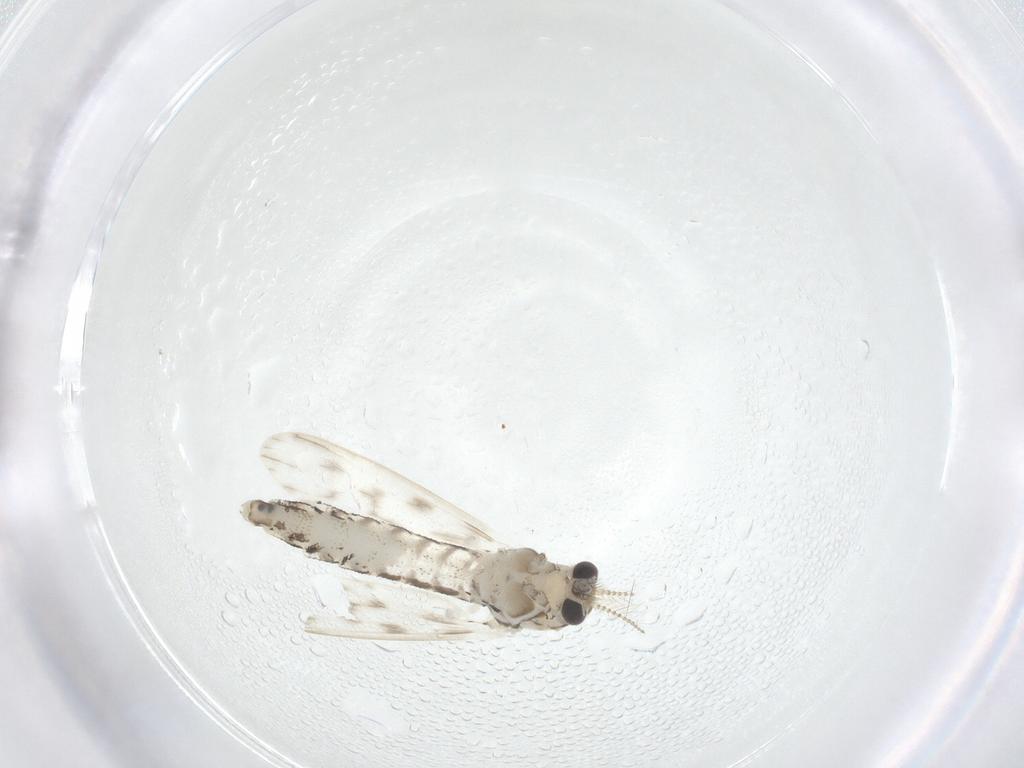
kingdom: Animalia
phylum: Arthropoda
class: Insecta
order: Diptera
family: Chaoboridae
